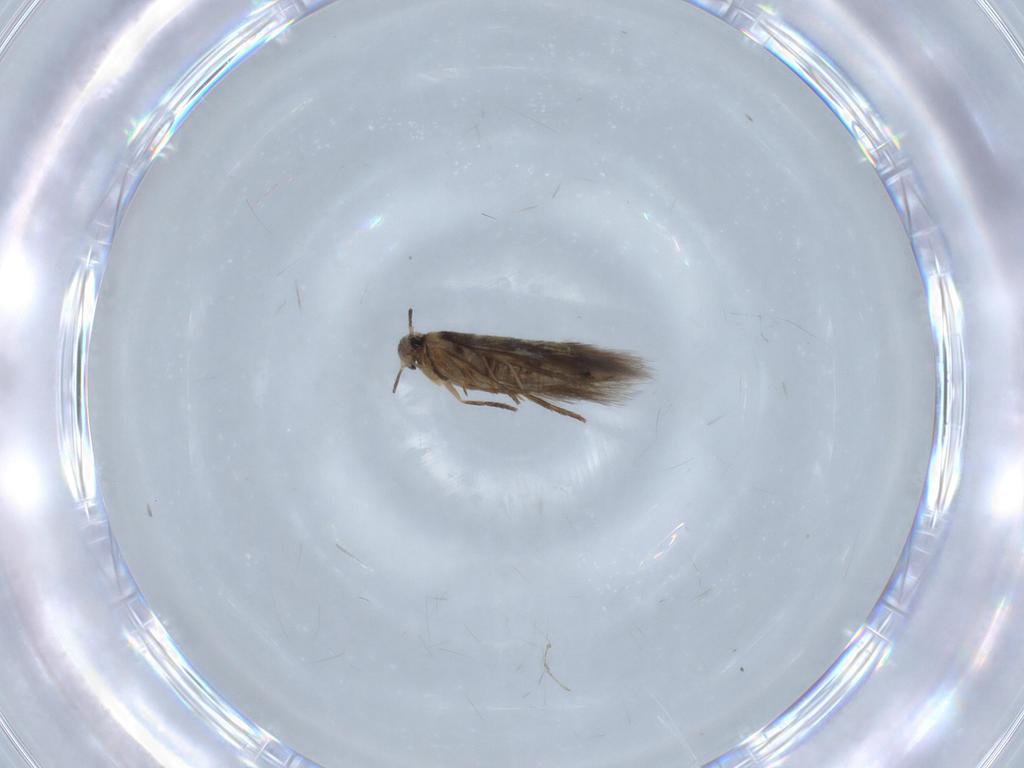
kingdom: Animalia
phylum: Arthropoda
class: Insecta
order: Lepidoptera
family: Heliozelidae
